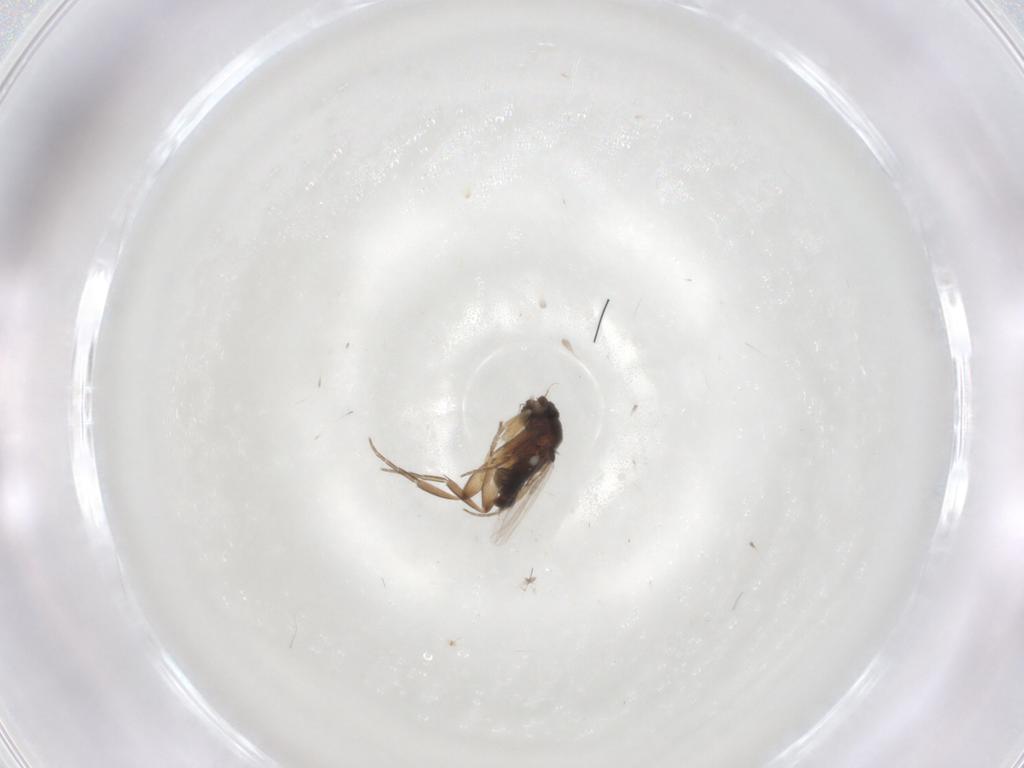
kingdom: Animalia
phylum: Arthropoda
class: Insecta
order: Diptera
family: Phoridae
